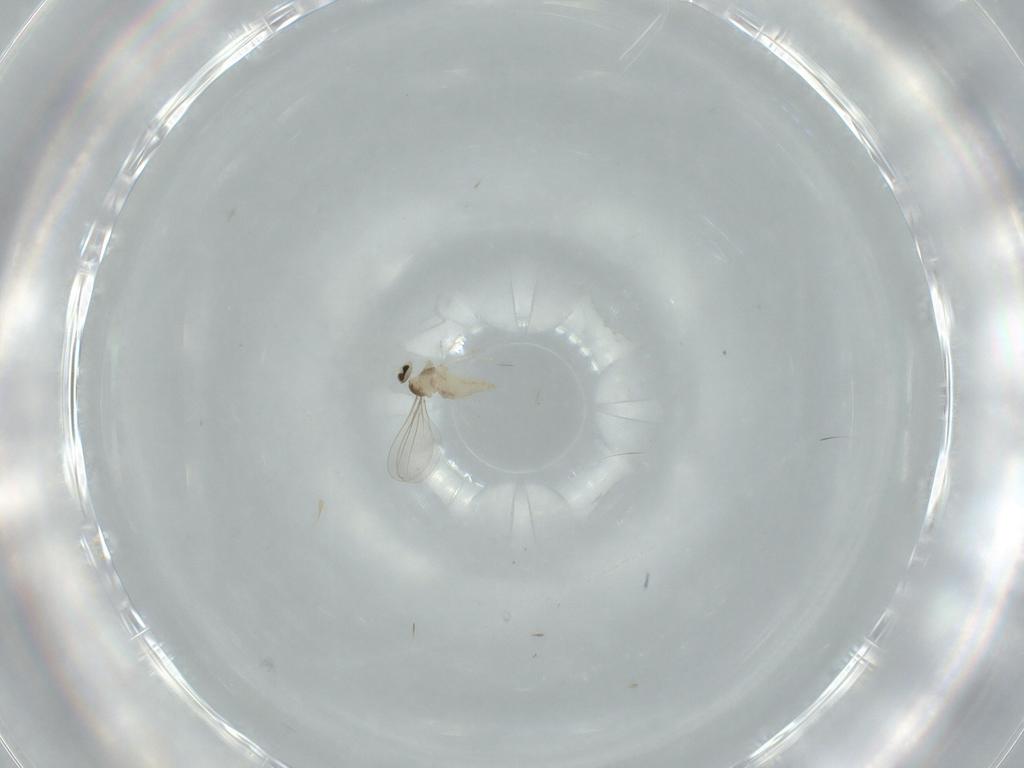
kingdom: Animalia
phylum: Arthropoda
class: Insecta
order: Diptera
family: Cecidomyiidae
